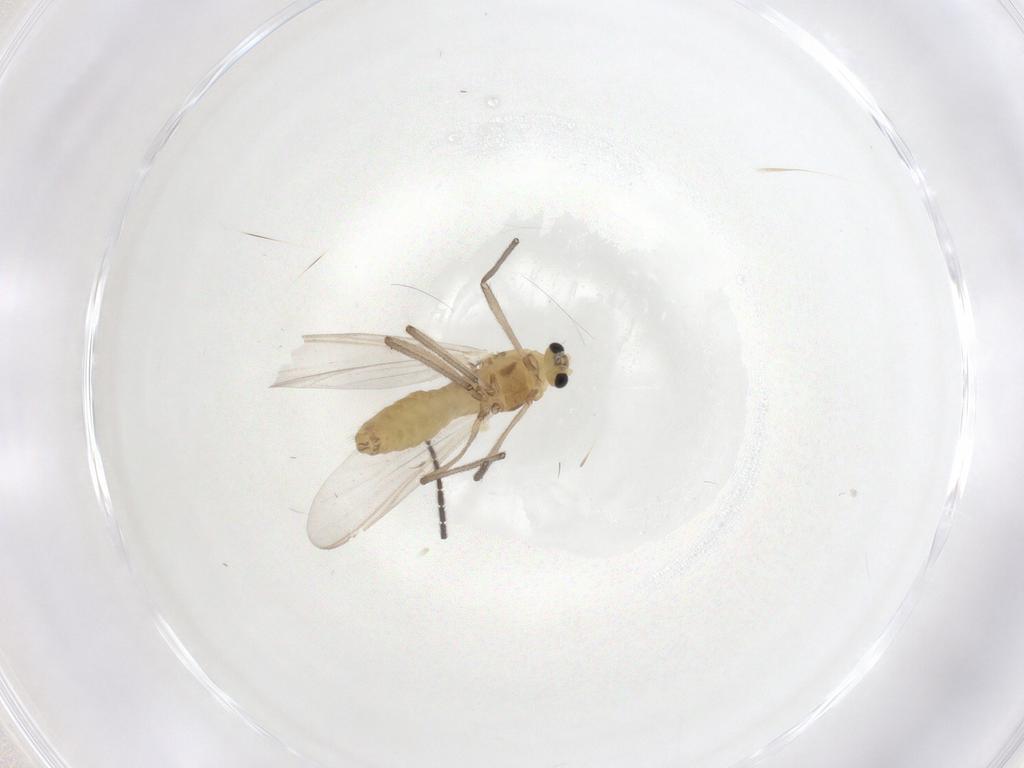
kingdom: Animalia
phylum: Arthropoda
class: Insecta
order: Diptera
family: Chironomidae
